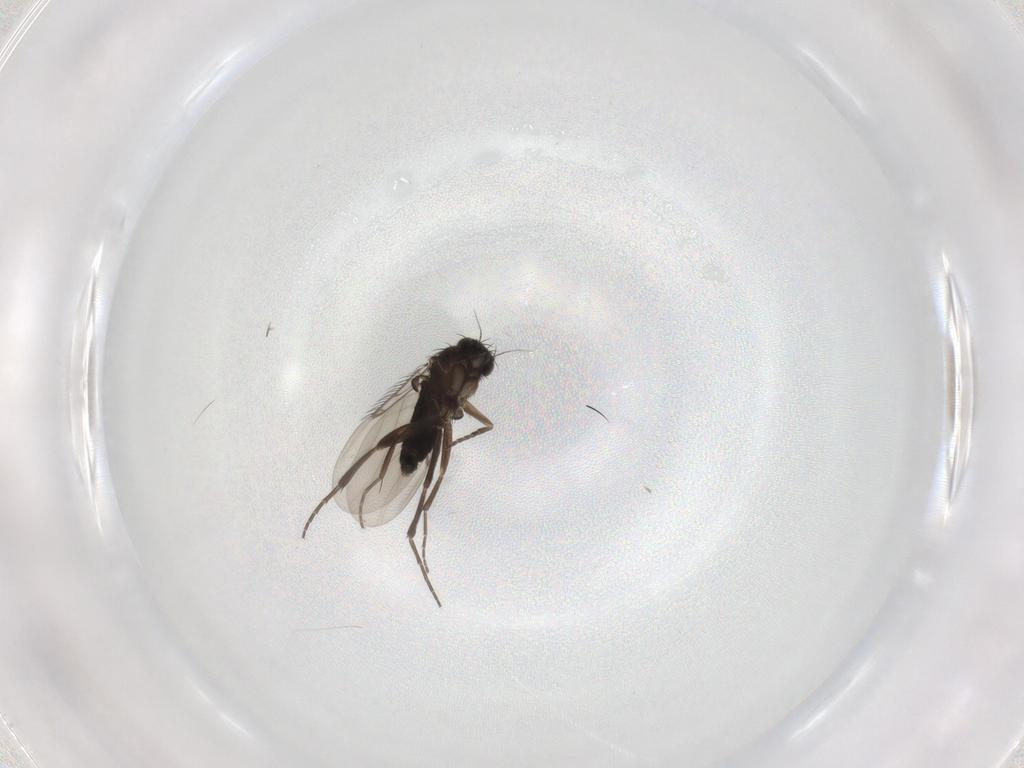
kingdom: Animalia
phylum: Arthropoda
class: Insecta
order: Diptera
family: Phoridae
